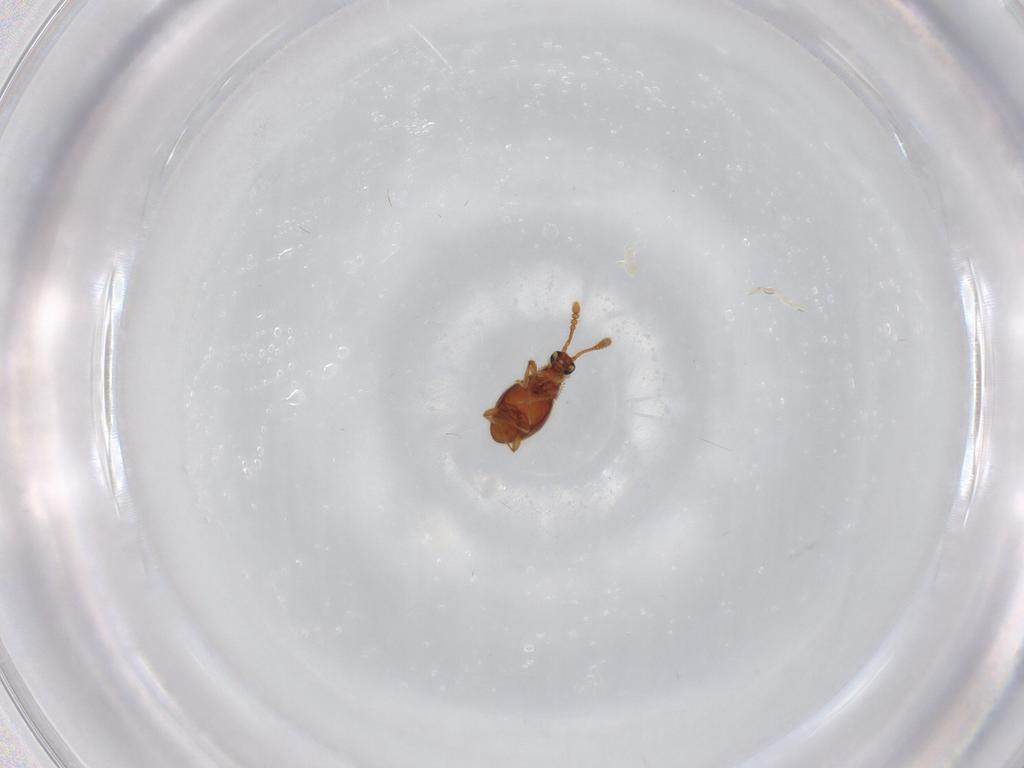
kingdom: Animalia
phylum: Arthropoda
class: Insecta
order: Coleoptera
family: Staphylinidae
